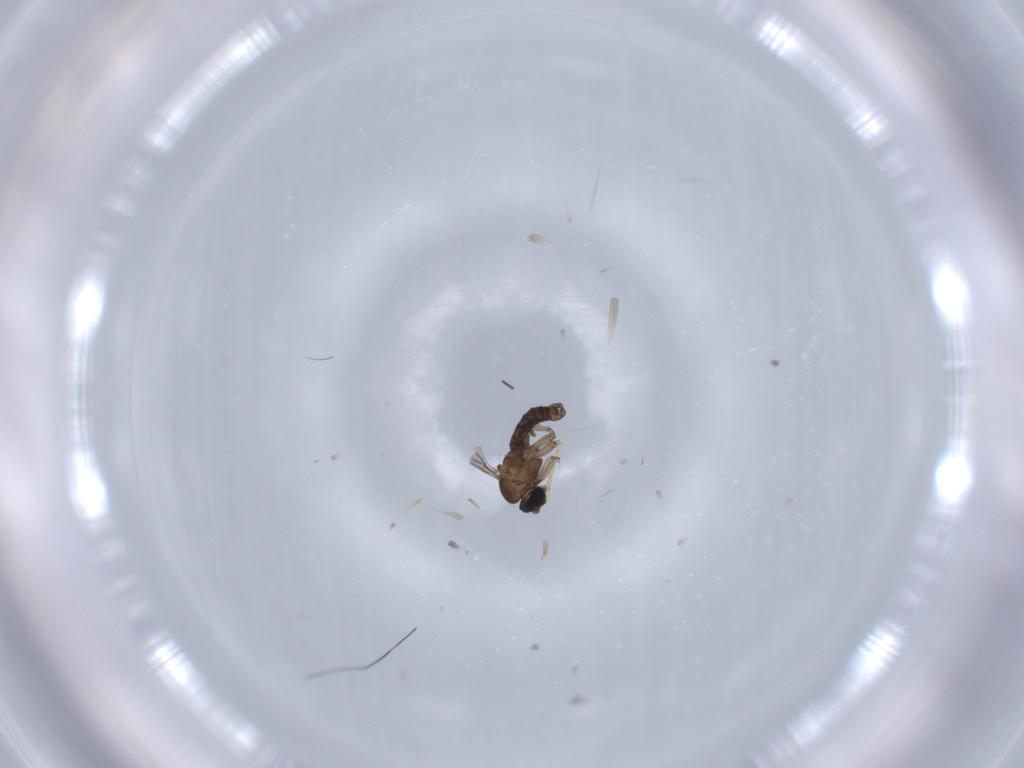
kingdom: Animalia
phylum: Arthropoda
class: Insecta
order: Diptera
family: Sciaridae
